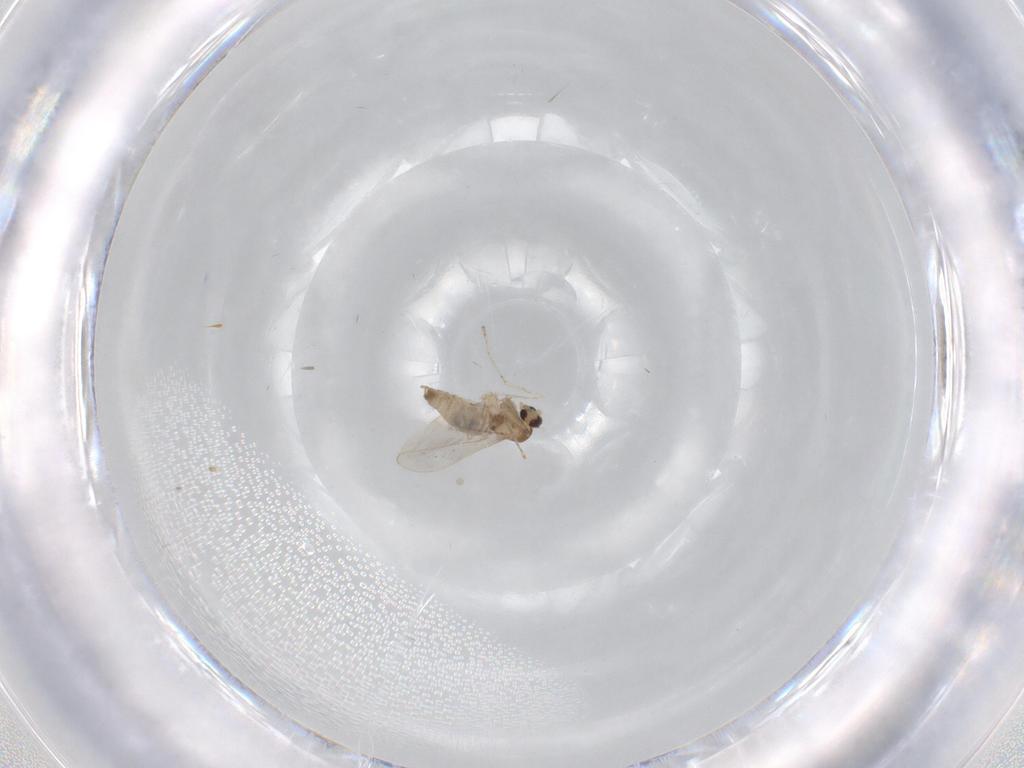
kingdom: Animalia
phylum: Arthropoda
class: Insecta
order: Diptera
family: Cecidomyiidae
